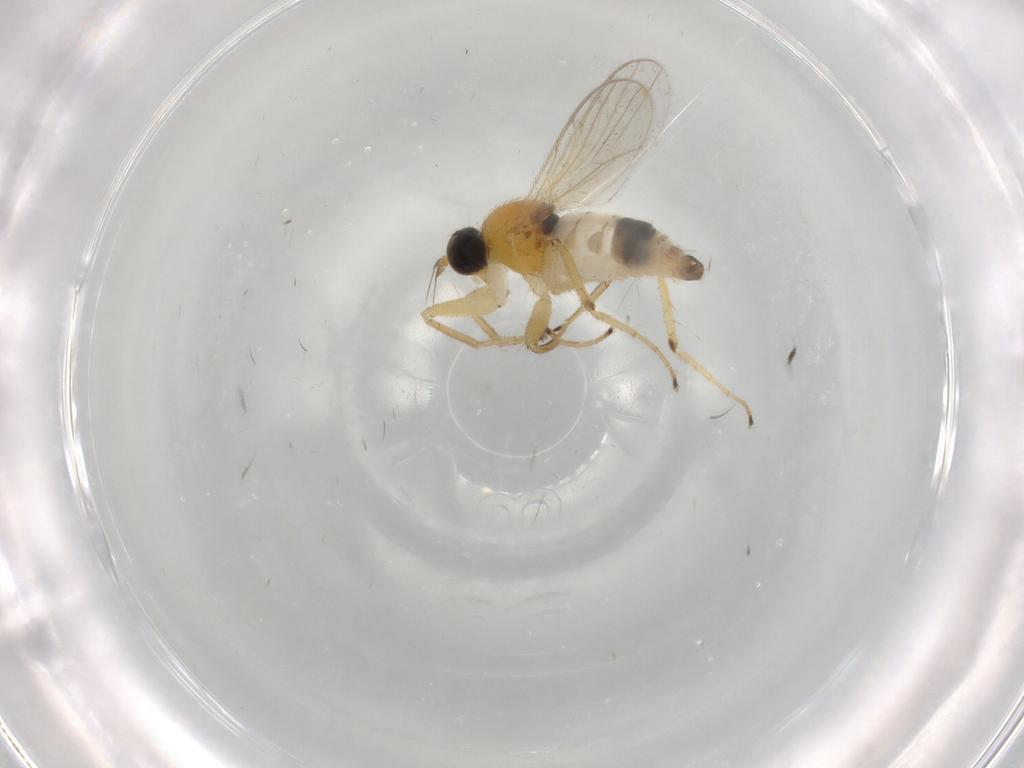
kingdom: Animalia
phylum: Arthropoda
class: Insecta
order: Diptera
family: Hybotidae
